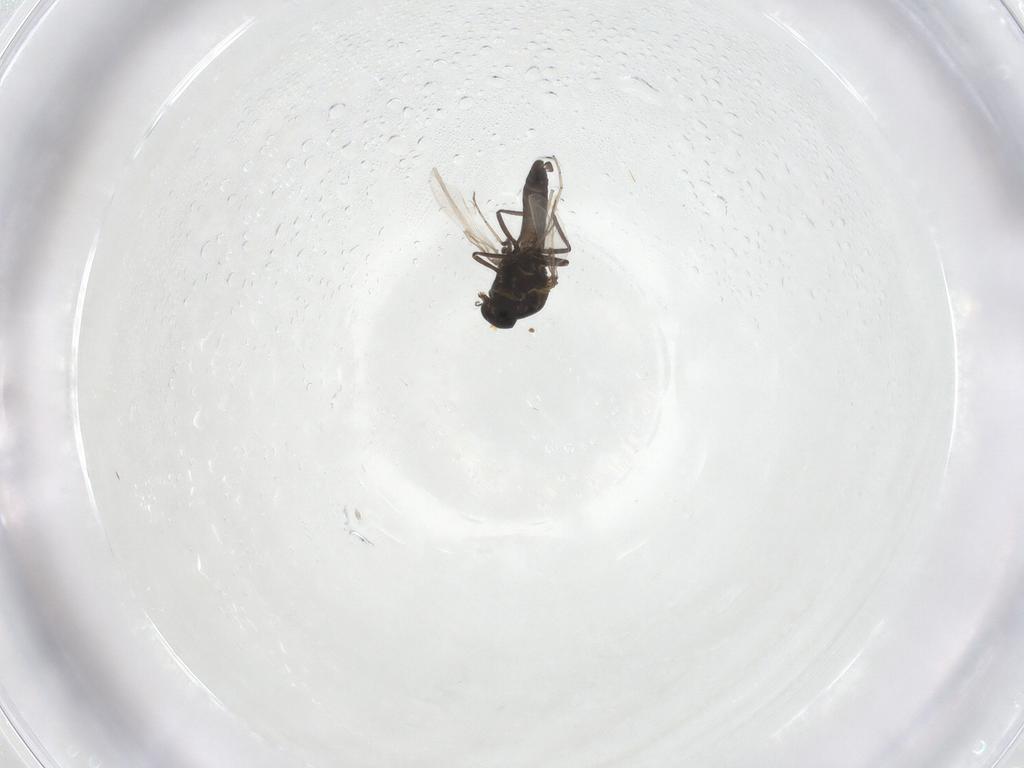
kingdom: Animalia
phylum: Arthropoda
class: Insecta
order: Diptera
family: Ceratopogonidae
